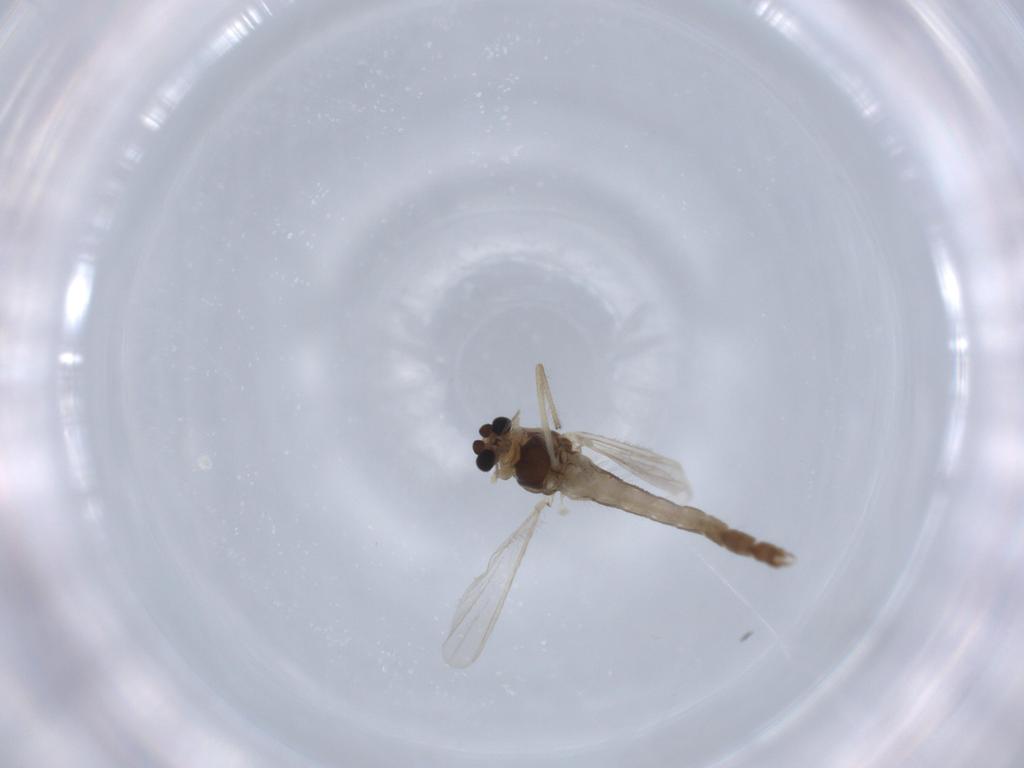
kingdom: Animalia
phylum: Arthropoda
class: Insecta
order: Diptera
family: Chironomidae
